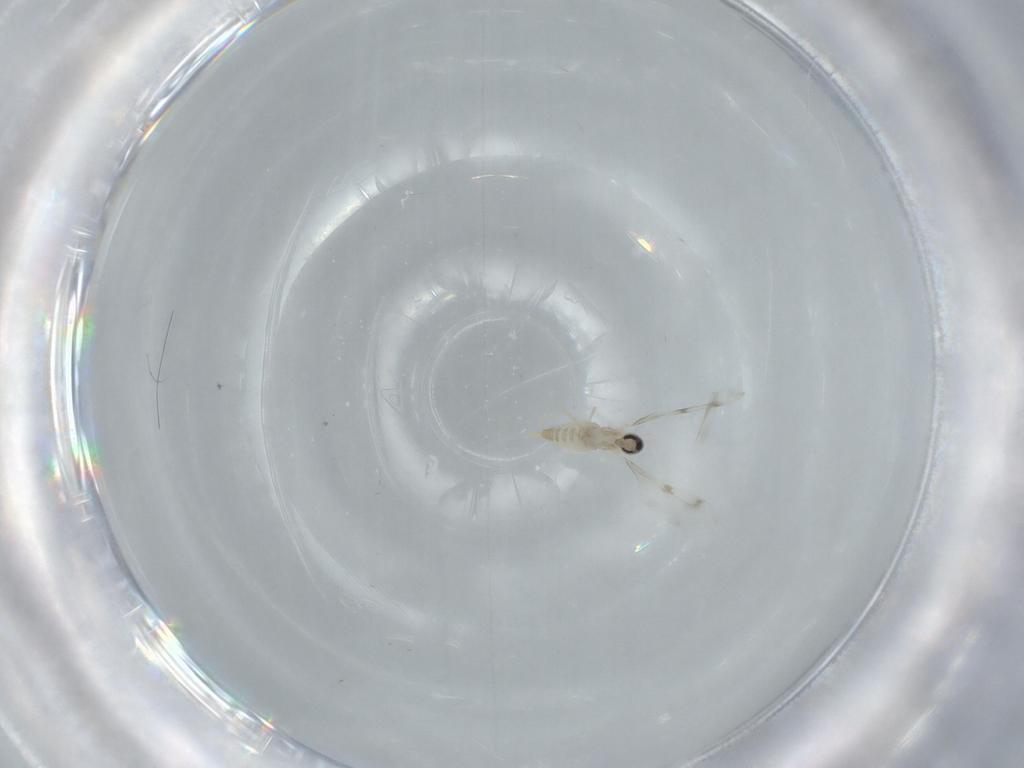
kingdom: Animalia
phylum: Arthropoda
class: Insecta
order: Diptera
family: Cecidomyiidae
